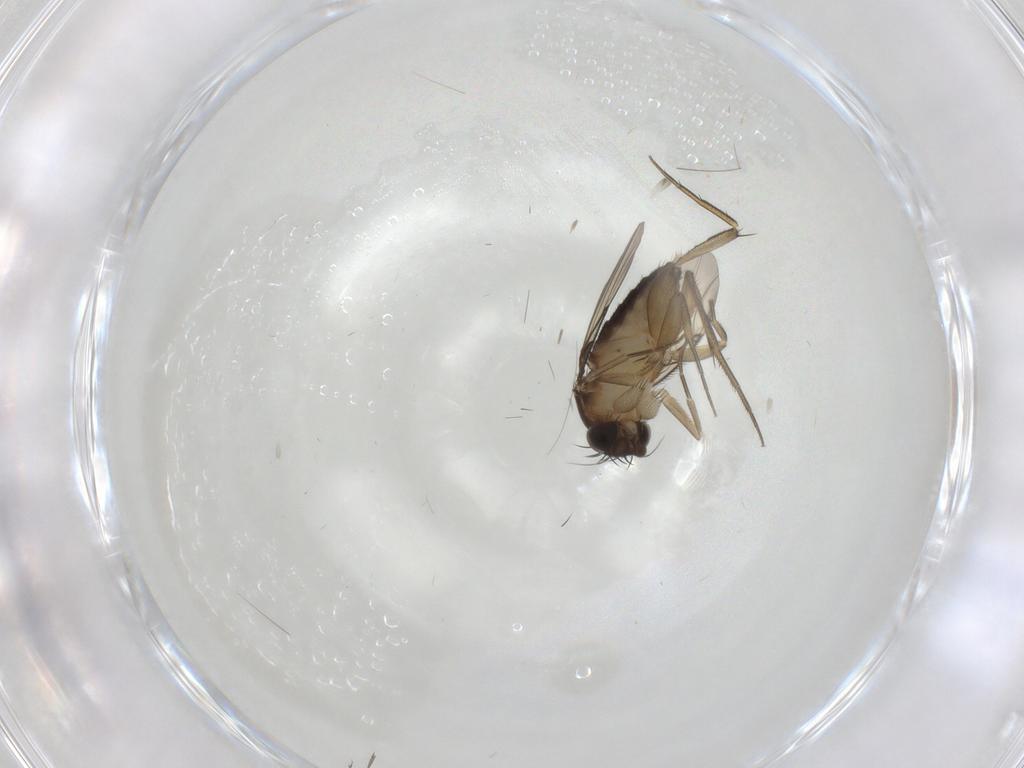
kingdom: Animalia
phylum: Arthropoda
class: Insecta
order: Diptera
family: Phoridae
